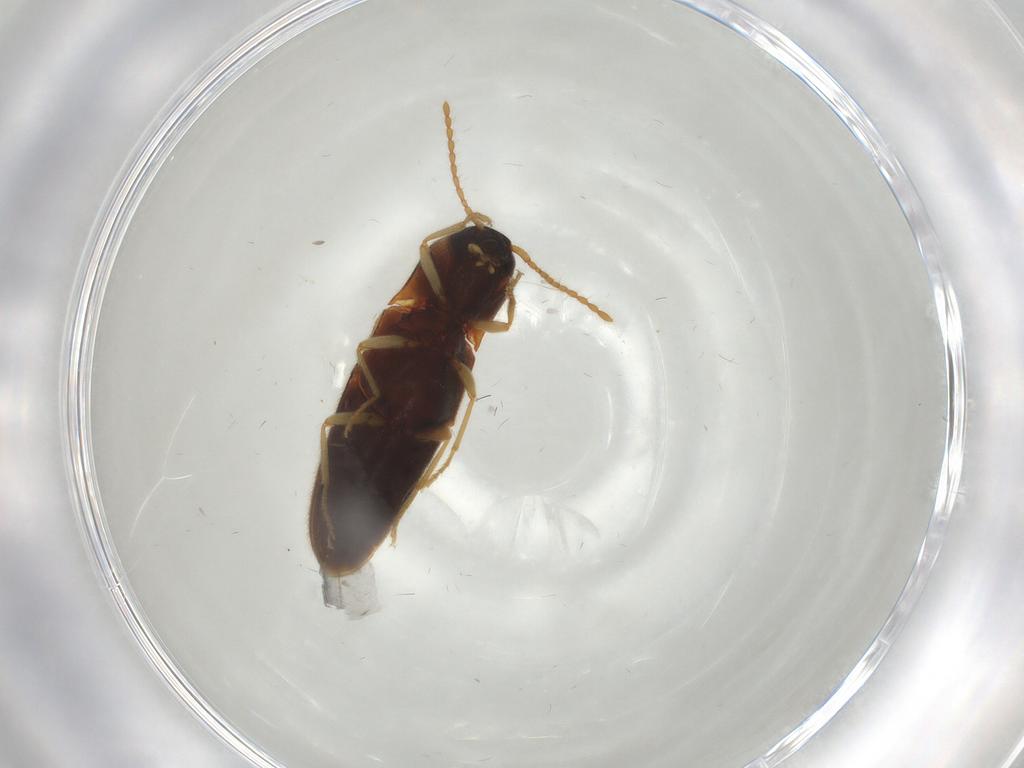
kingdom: Animalia
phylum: Arthropoda
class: Insecta
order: Coleoptera
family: Elateridae
